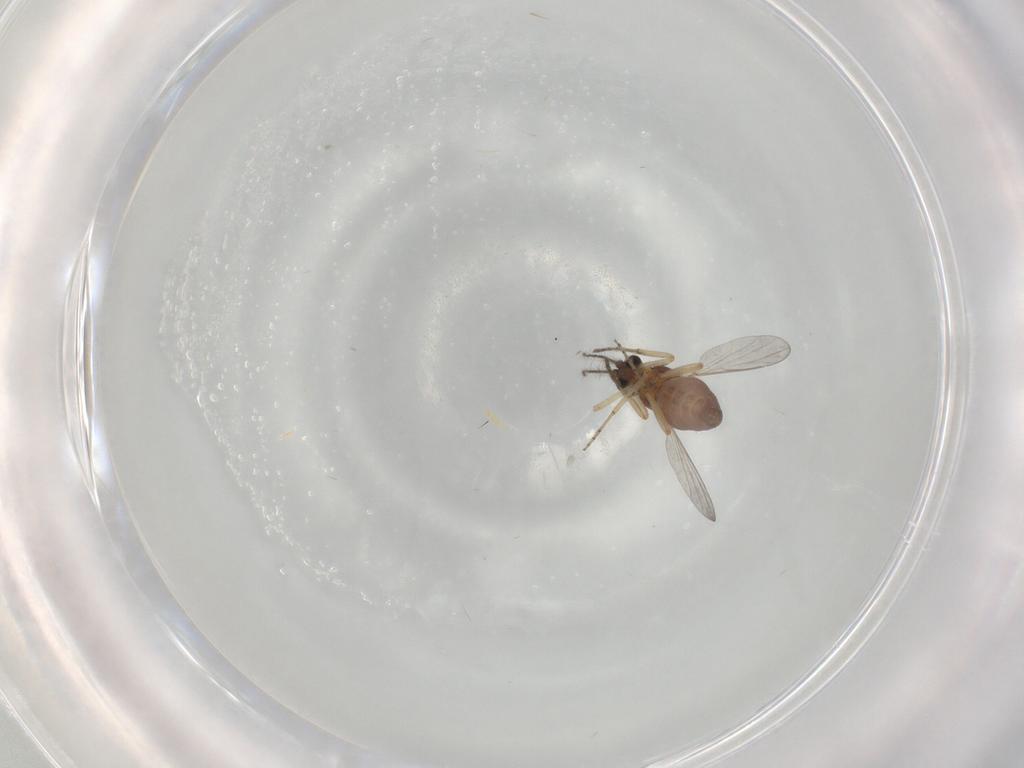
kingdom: Animalia
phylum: Arthropoda
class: Insecta
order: Diptera
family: Ceratopogonidae
